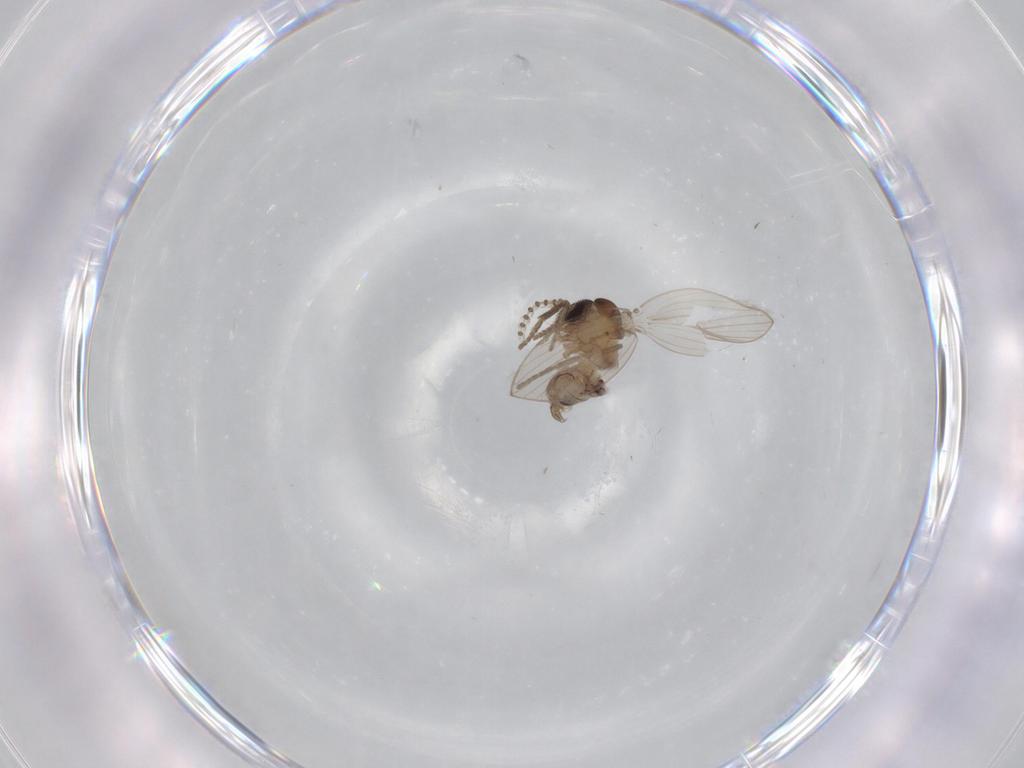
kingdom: Animalia
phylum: Arthropoda
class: Insecta
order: Diptera
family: Psychodidae
